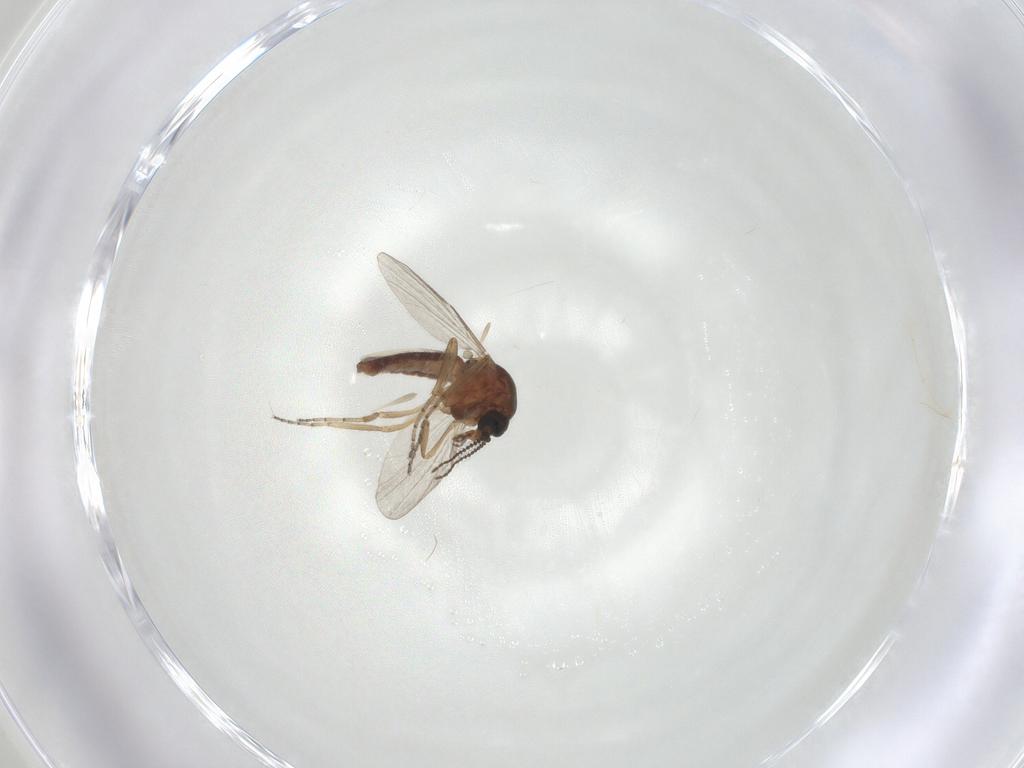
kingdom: Animalia
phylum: Arthropoda
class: Insecta
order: Diptera
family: Ceratopogonidae
